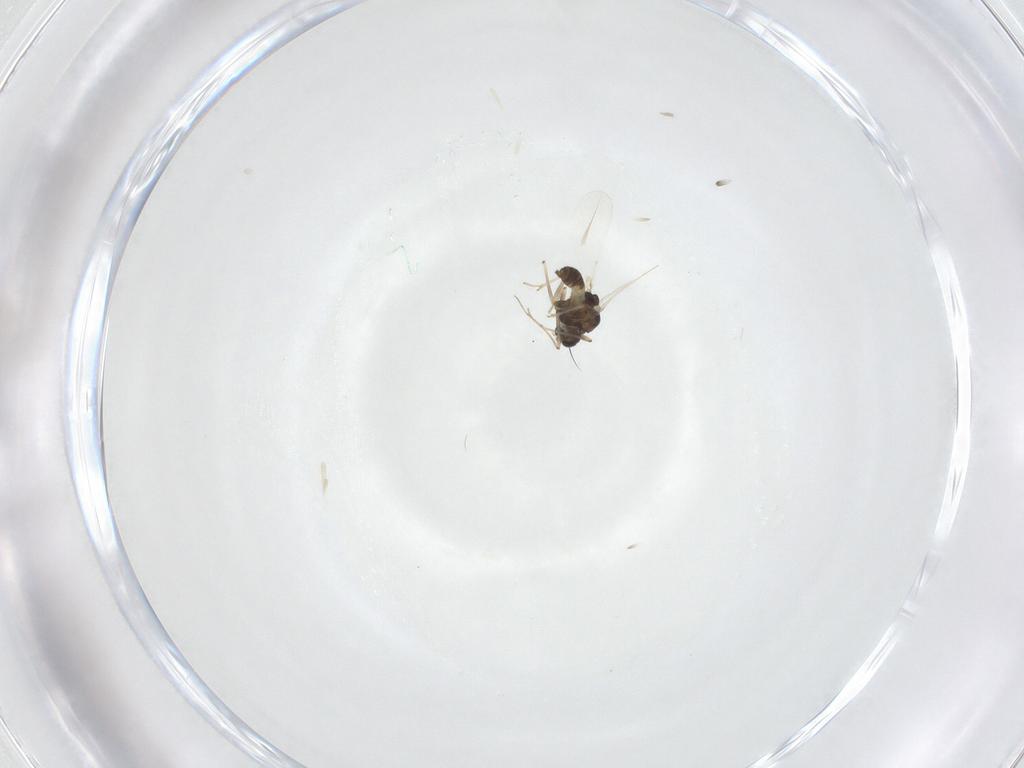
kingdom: Animalia
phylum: Arthropoda
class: Insecta
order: Diptera
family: Chironomidae
